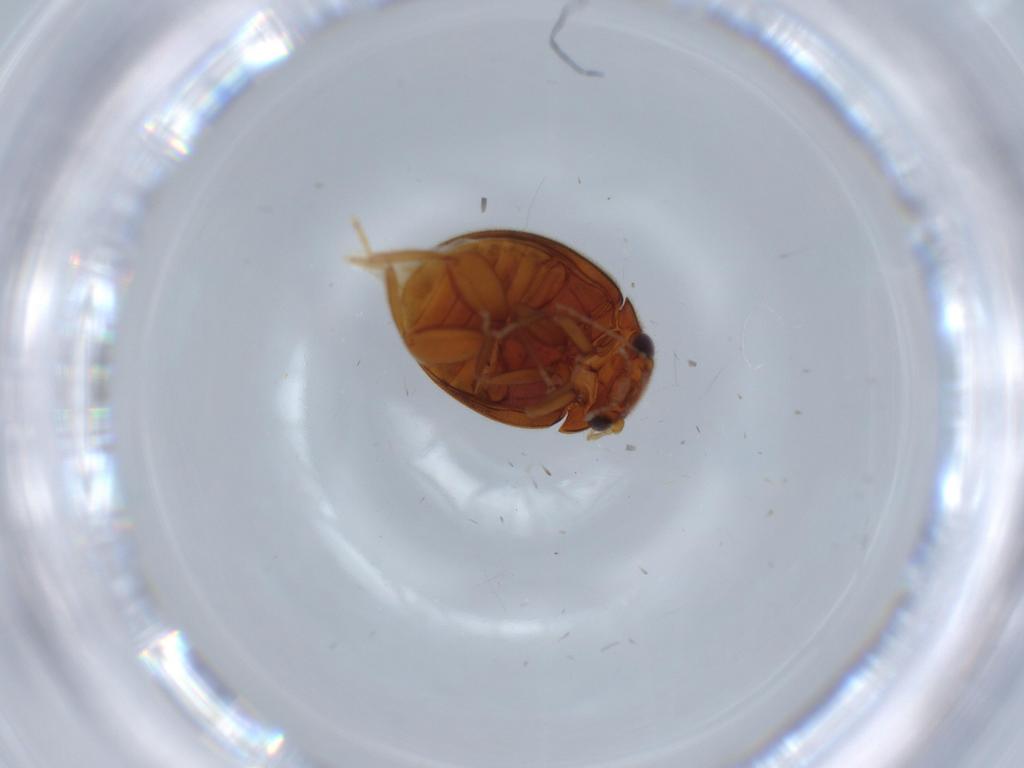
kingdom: Animalia
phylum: Arthropoda
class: Insecta
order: Coleoptera
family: Scirtidae
